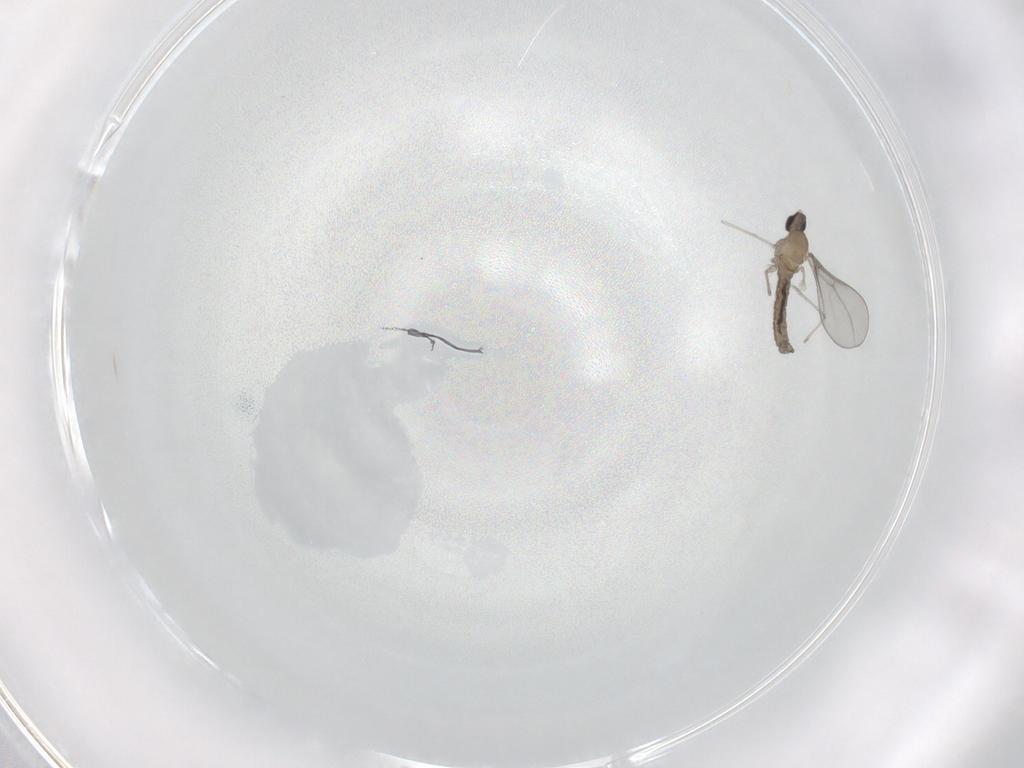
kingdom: Animalia
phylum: Arthropoda
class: Insecta
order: Diptera
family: Cecidomyiidae
